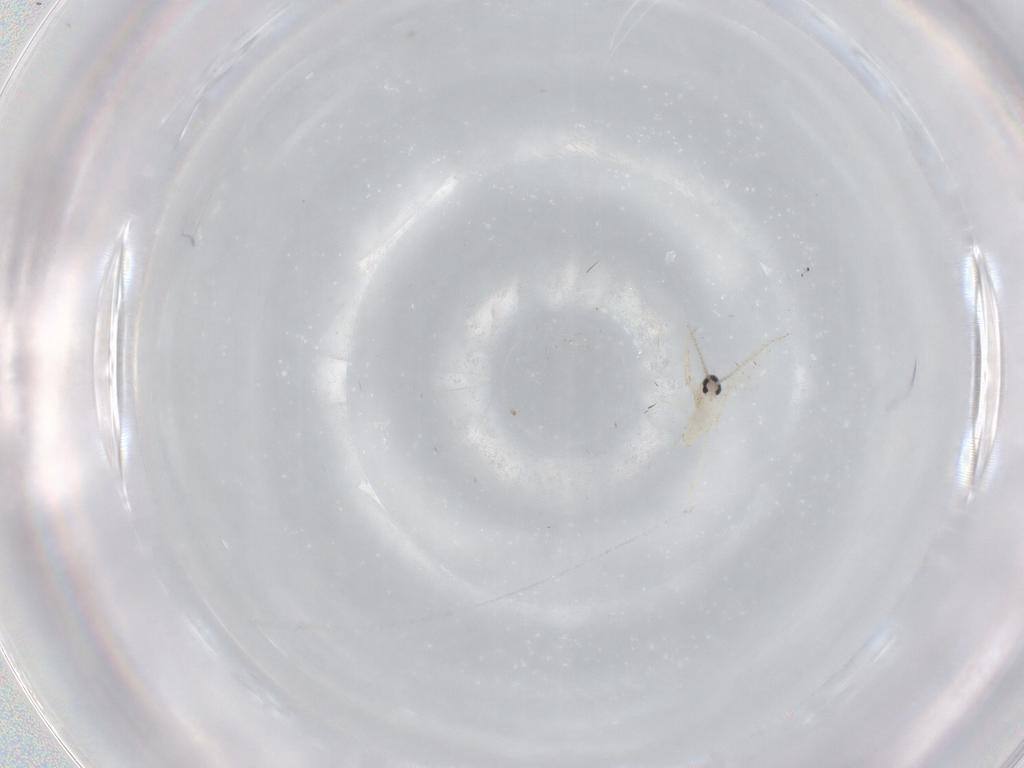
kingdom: Animalia
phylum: Arthropoda
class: Insecta
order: Diptera
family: Cecidomyiidae
